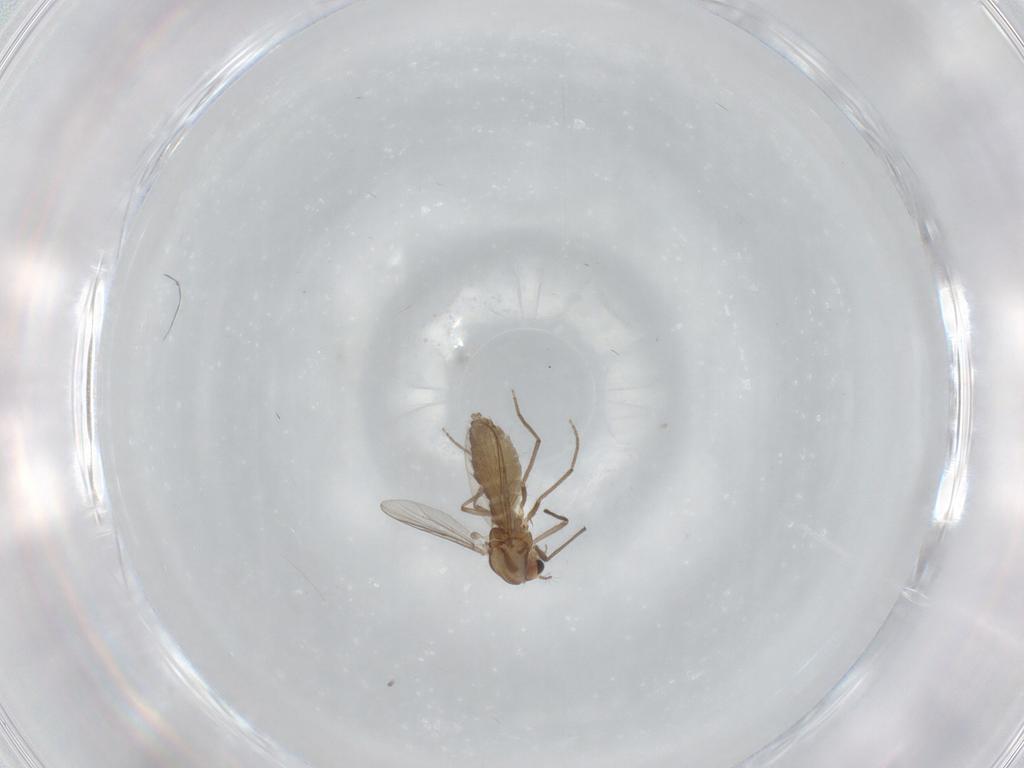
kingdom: Animalia
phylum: Arthropoda
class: Insecta
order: Diptera
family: Chironomidae
